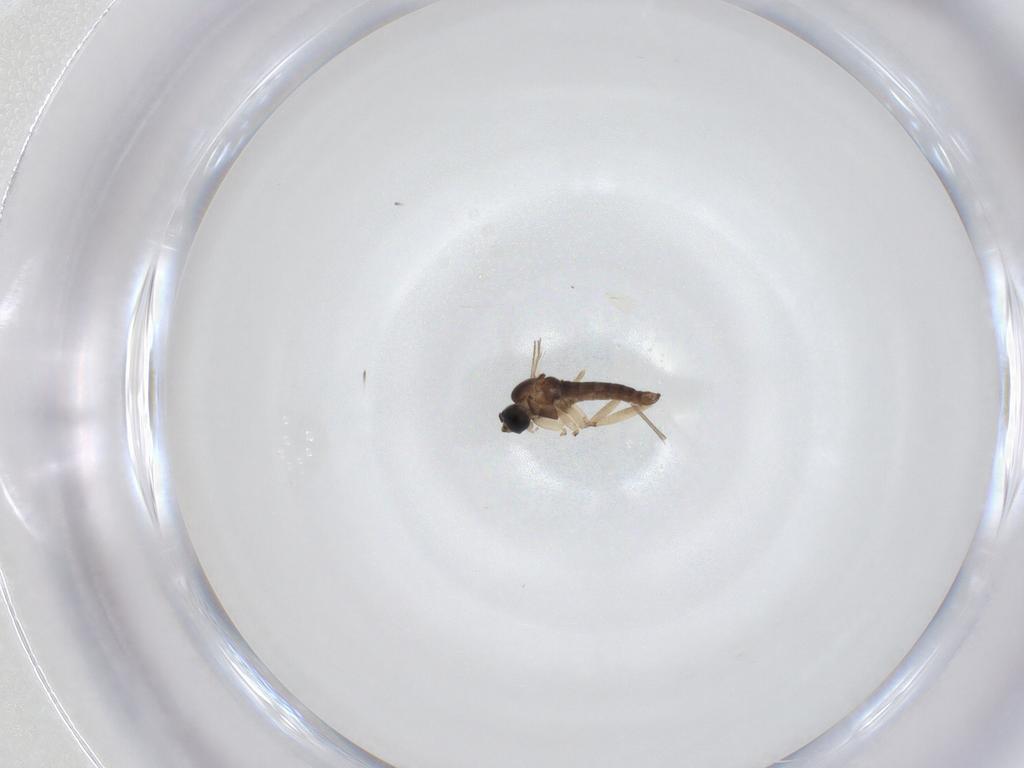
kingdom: Animalia
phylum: Arthropoda
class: Insecta
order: Diptera
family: Sciaridae
